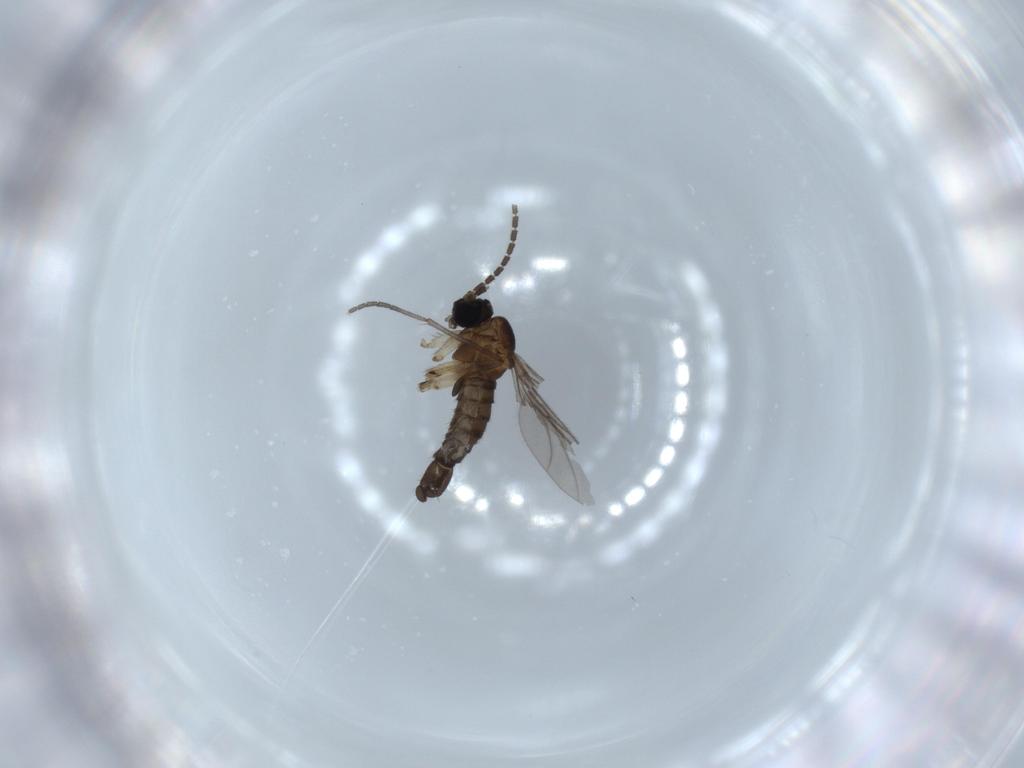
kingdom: Animalia
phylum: Arthropoda
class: Insecta
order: Diptera
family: Sciaridae
